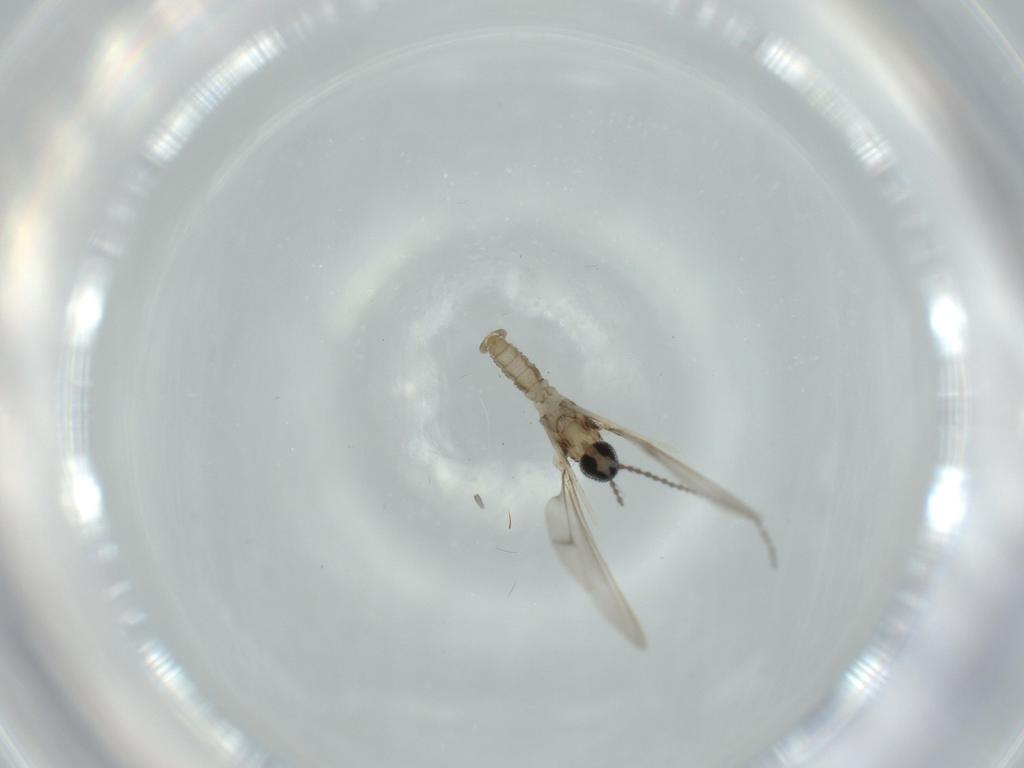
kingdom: Animalia
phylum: Arthropoda
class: Insecta
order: Diptera
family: Cecidomyiidae
